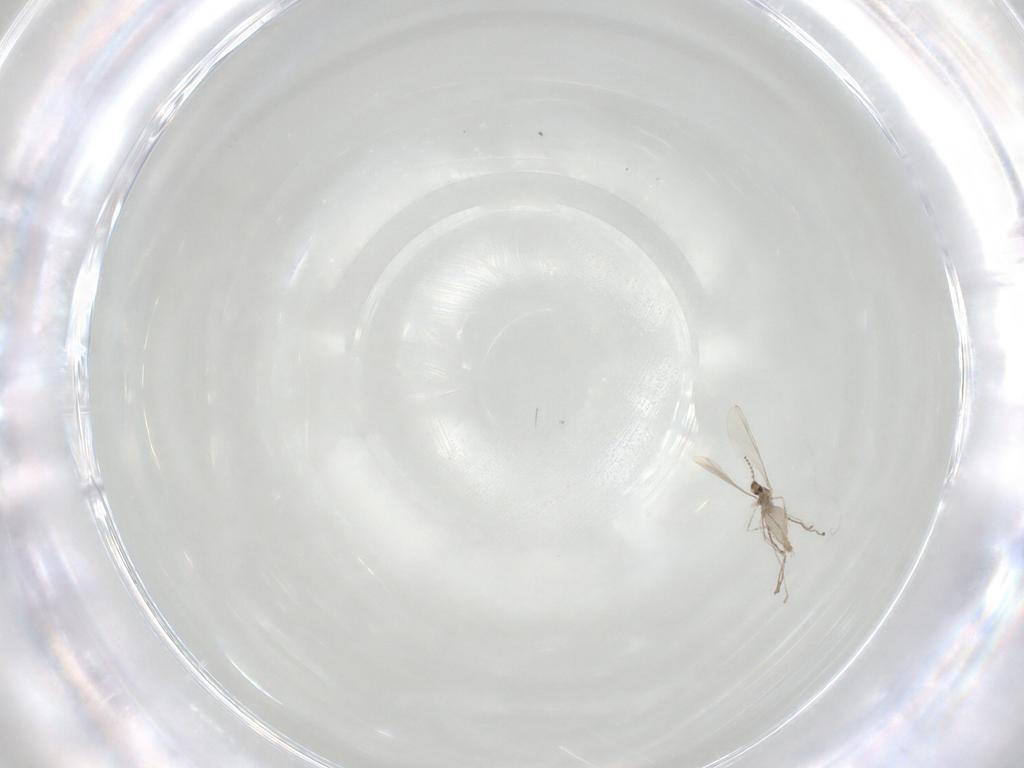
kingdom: Animalia
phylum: Arthropoda
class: Insecta
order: Diptera
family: Cecidomyiidae
